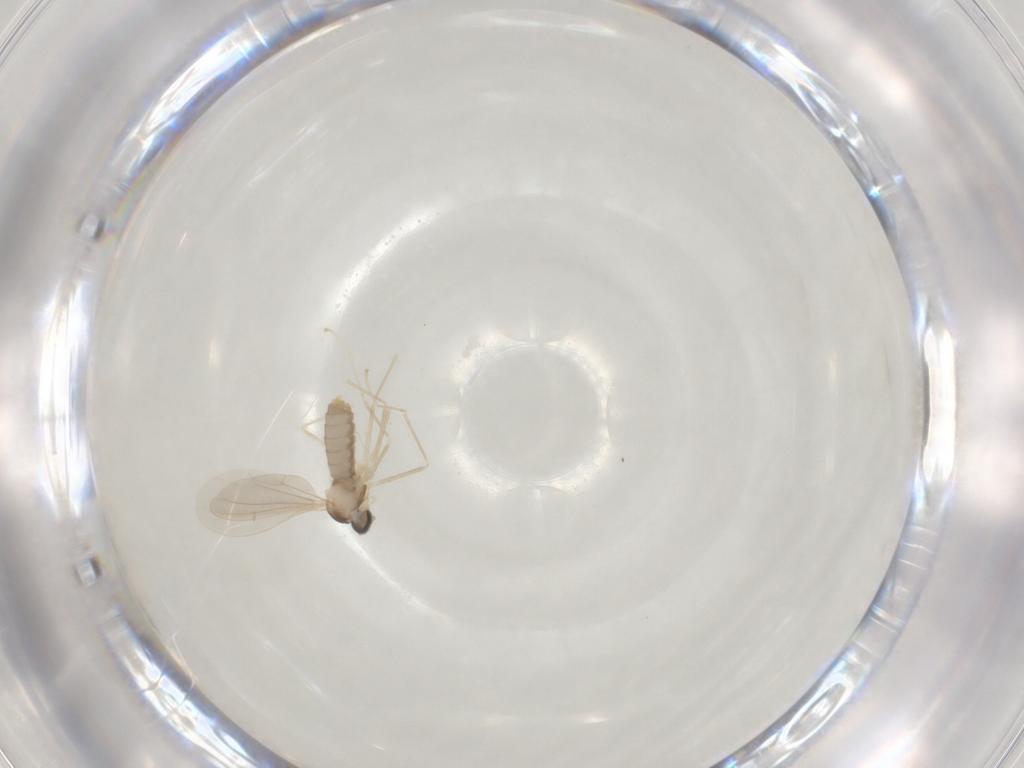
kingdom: Animalia
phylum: Arthropoda
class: Insecta
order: Diptera
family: Cecidomyiidae
